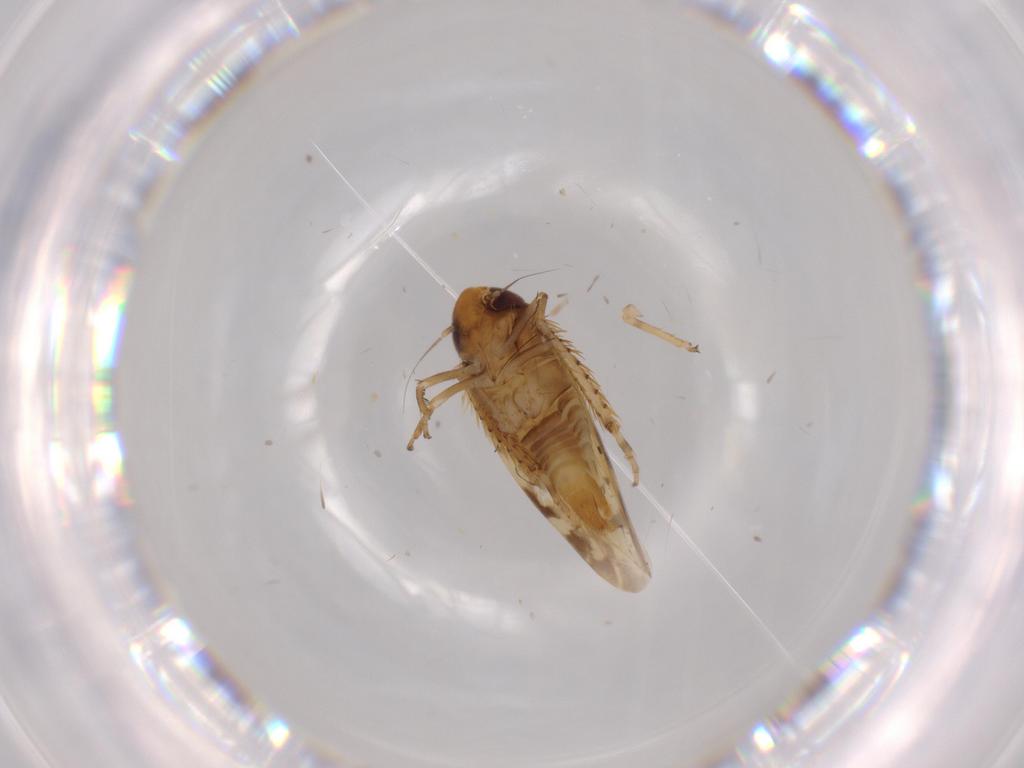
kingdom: Animalia
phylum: Arthropoda
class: Insecta
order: Hemiptera
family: Cicadellidae
